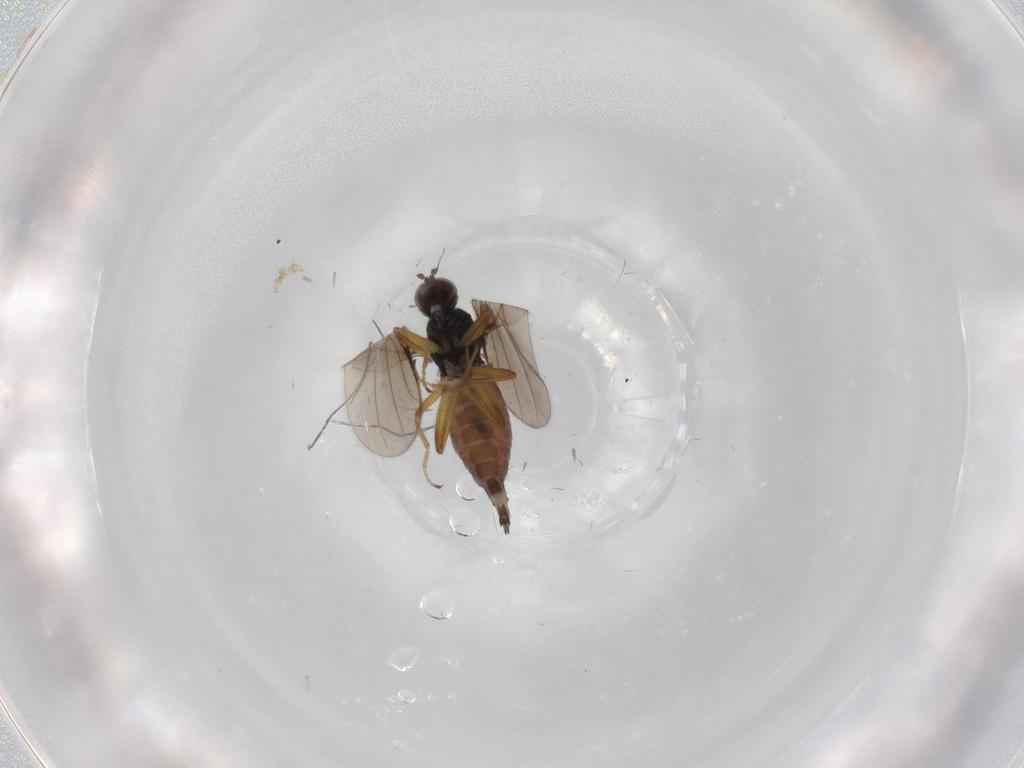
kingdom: Animalia
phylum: Arthropoda
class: Insecta
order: Diptera
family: Hybotidae
